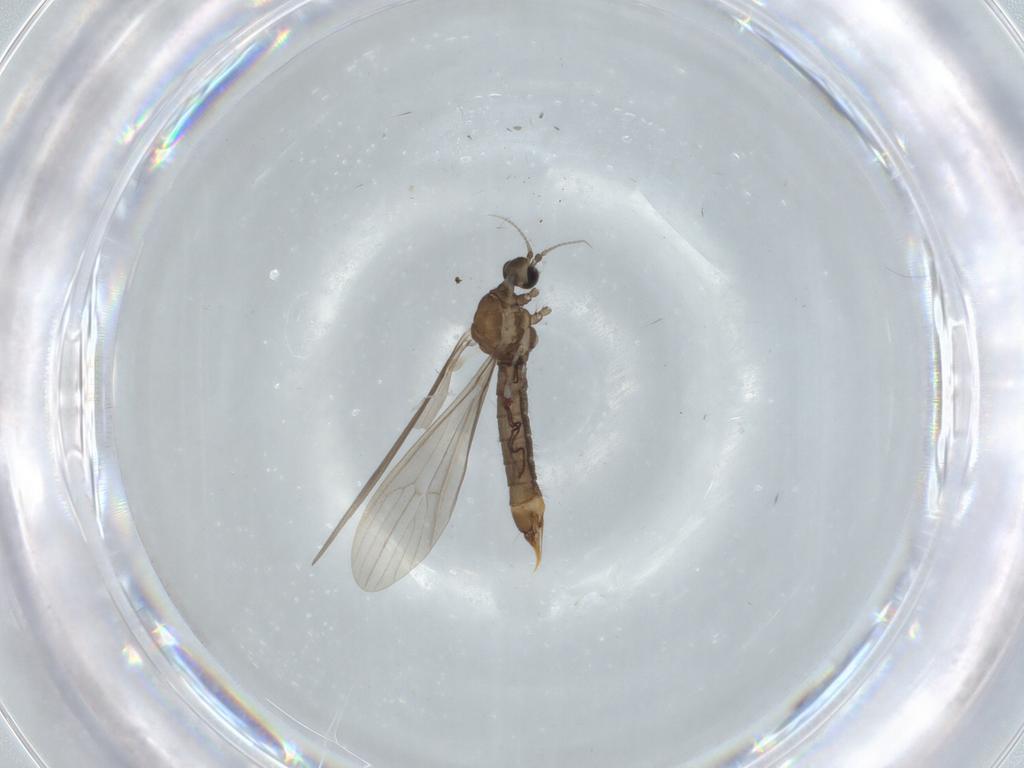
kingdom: Animalia
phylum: Arthropoda
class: Insecta
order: Diptera
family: Limoniidae
